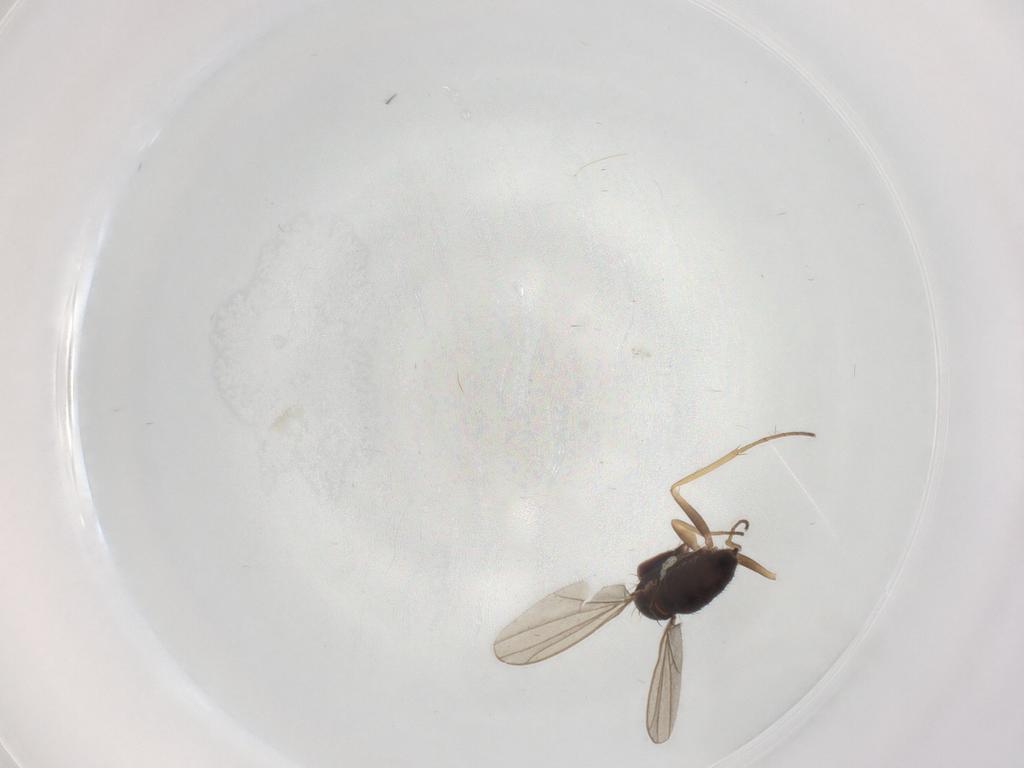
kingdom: Animalia
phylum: Arthropoda
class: Insecta
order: Diptera
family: Dolichopodidae
